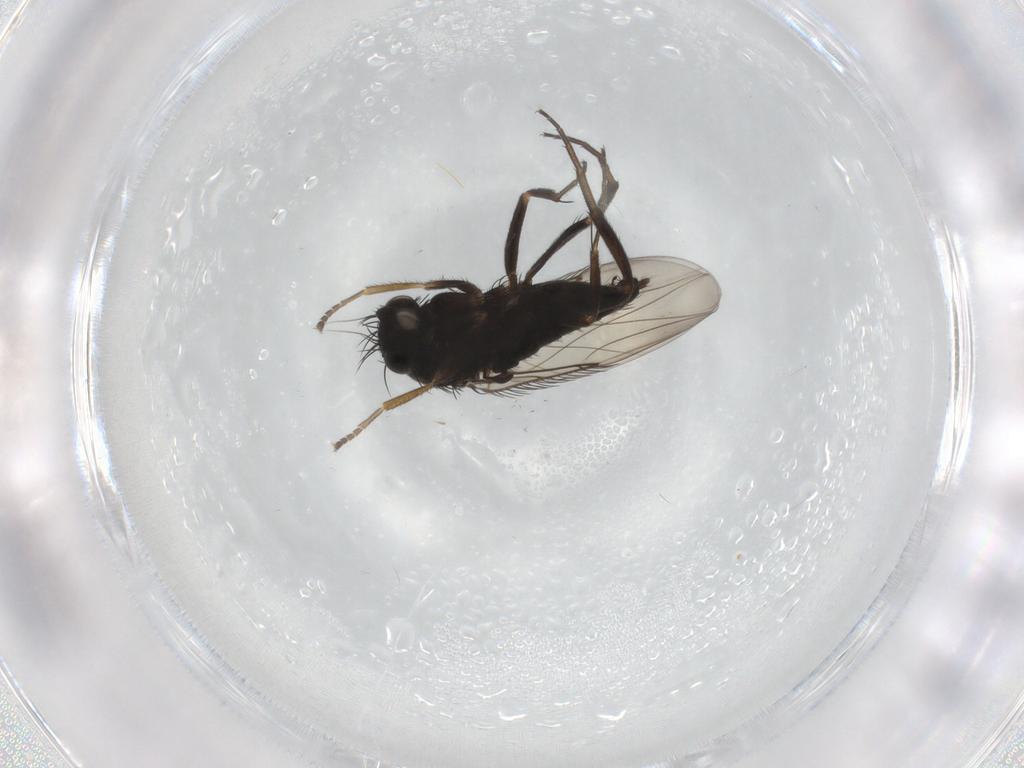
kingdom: Animalia
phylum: Arthropoda
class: Insecta
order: Diptera
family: Phoridae
